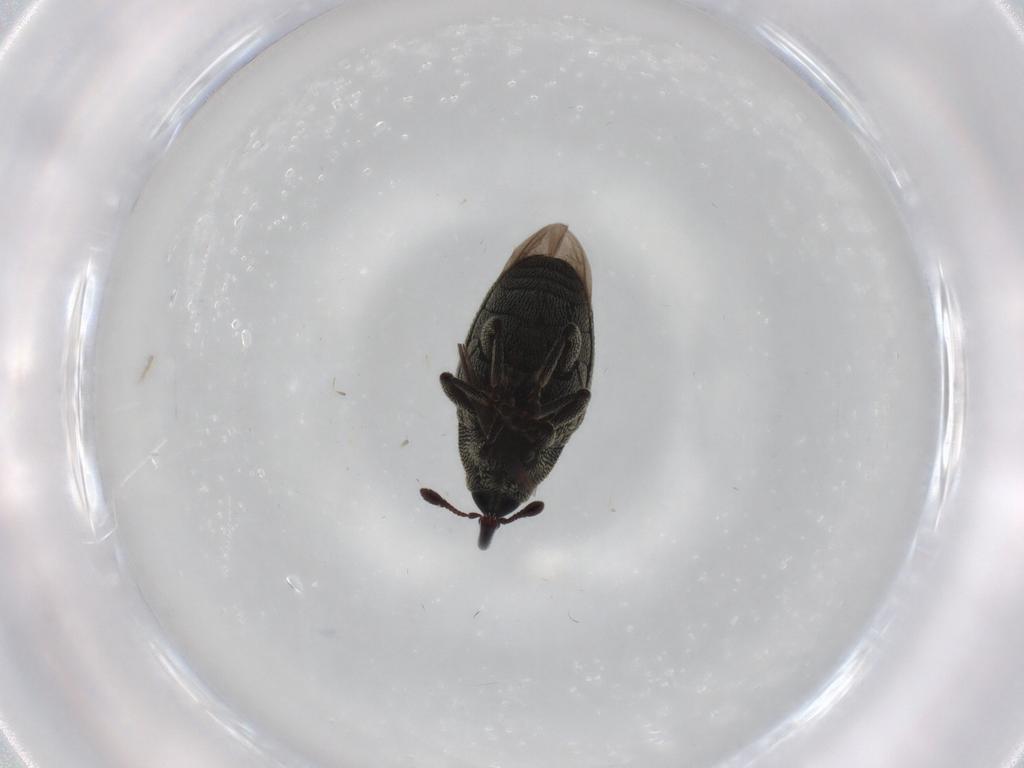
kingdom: Animalia
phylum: Arthropoda
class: Insecta
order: Coleoptera
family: Curculionidae
